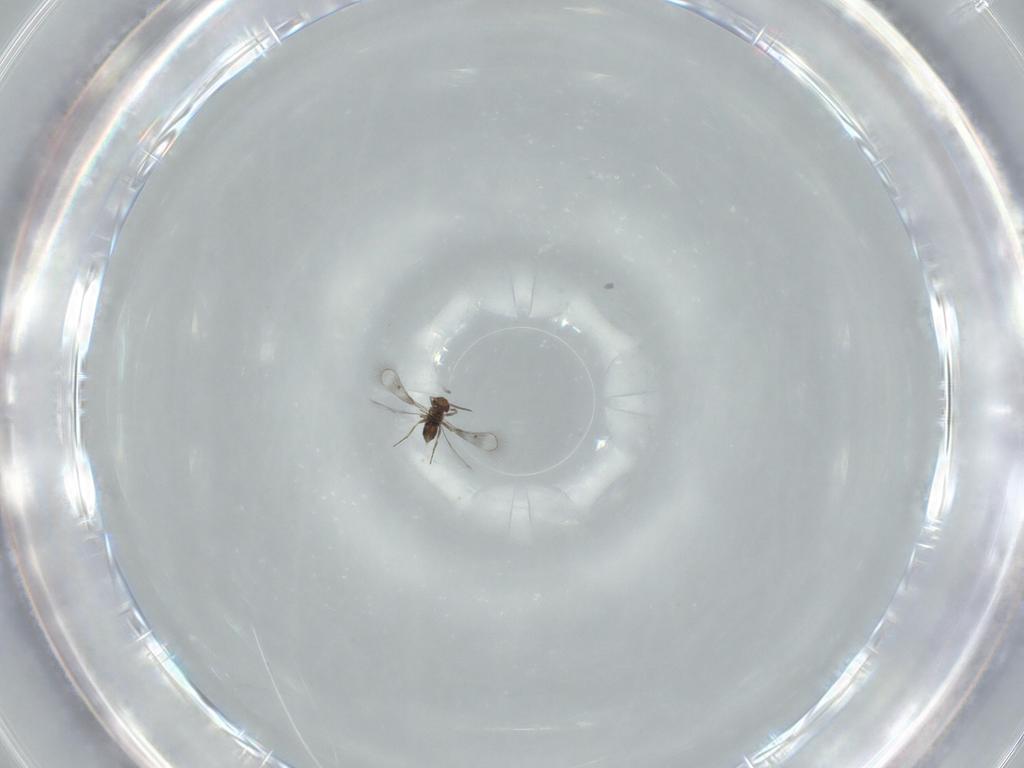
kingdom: Animalia
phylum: Arthropoda
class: Insecta
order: Hymenoptera
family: Trichogrammatidae
